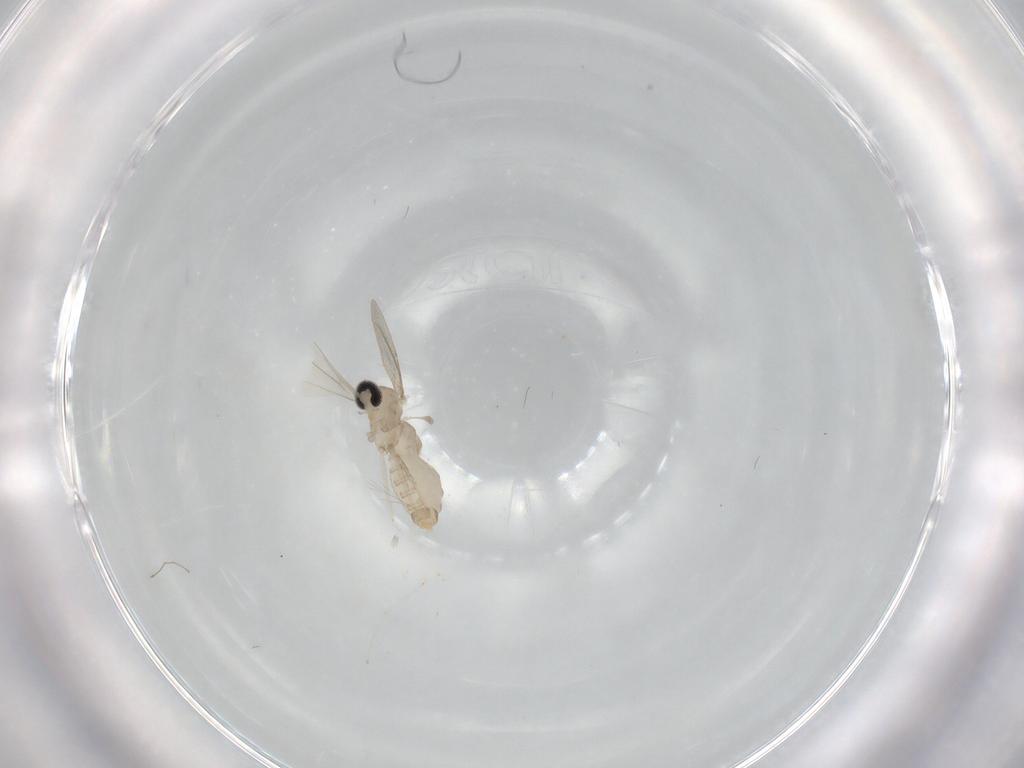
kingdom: Animalia
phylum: Arthropoda
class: Insecta
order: Diptera
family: Cecidomyiidae
